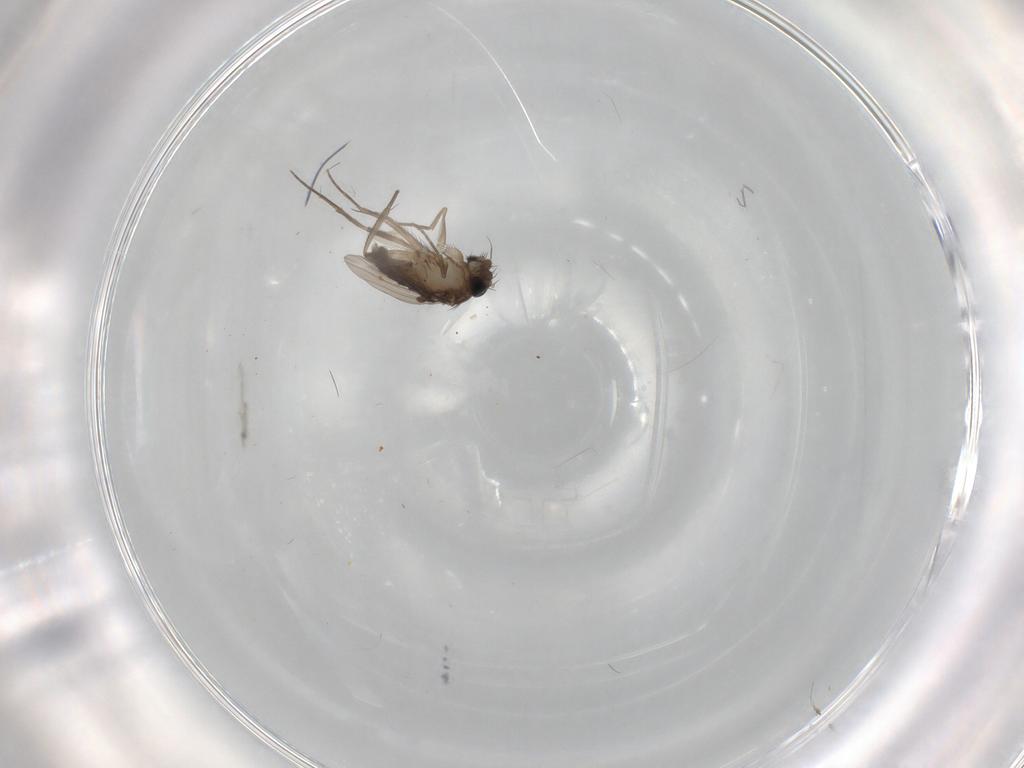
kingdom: Animalia
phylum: Arthropoda
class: Insecta
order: Diptera
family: Phoridae
